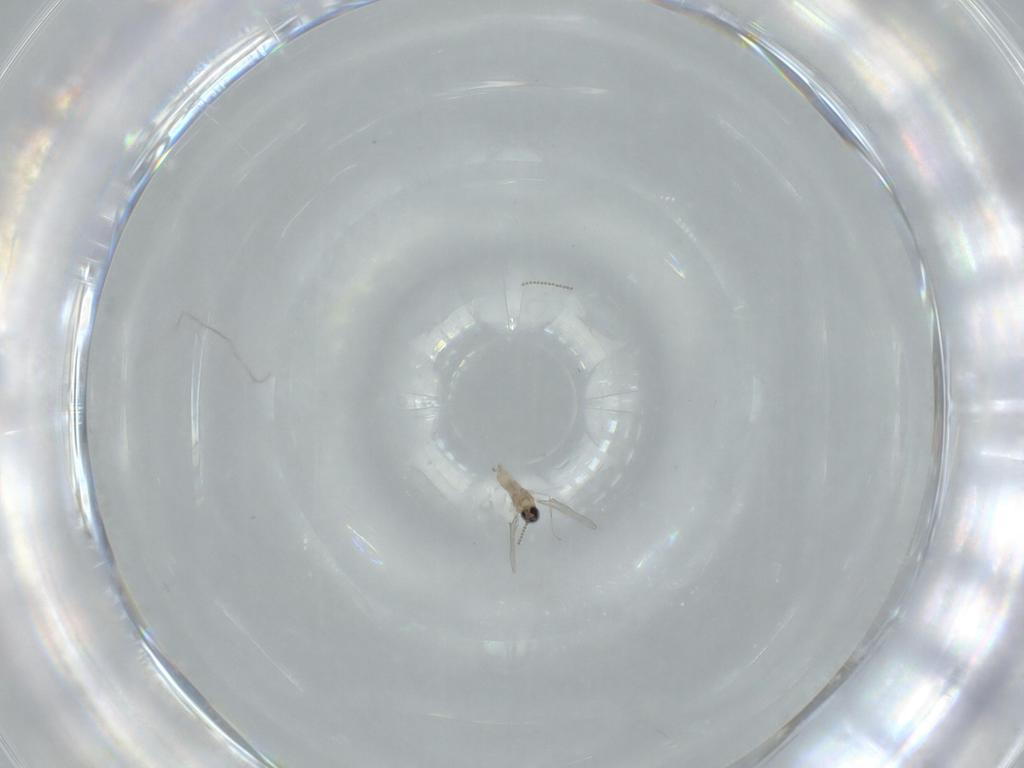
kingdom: Animalia
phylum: Arthropoda
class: Insecta
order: Diptera
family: Cecidomyiidae
